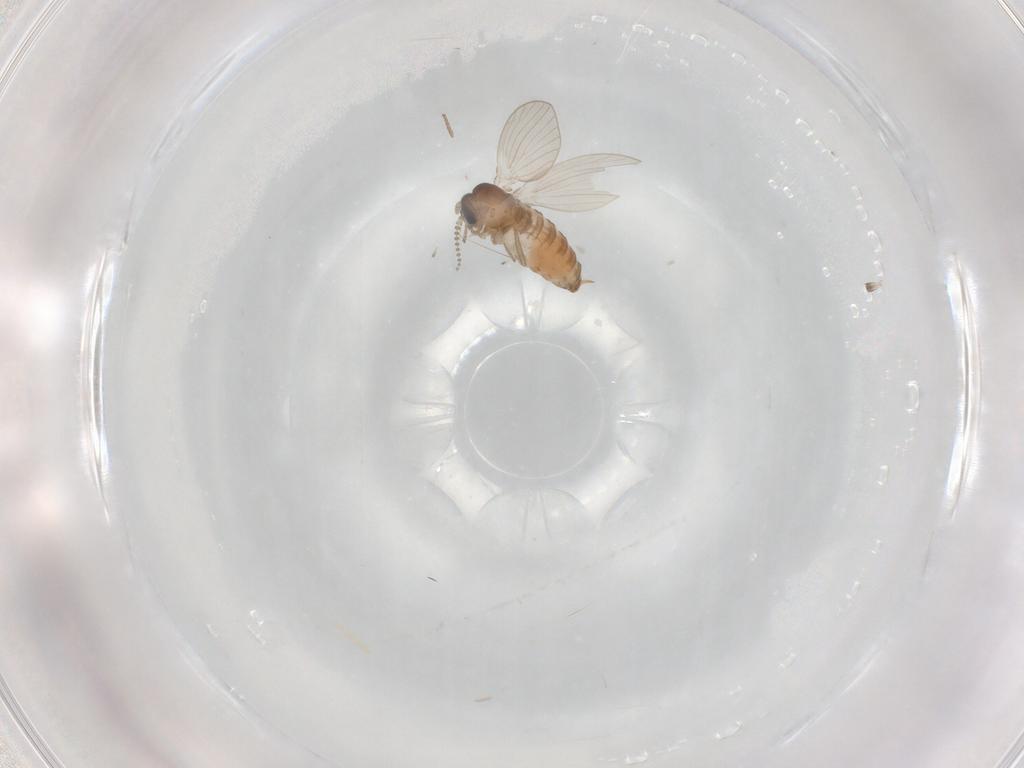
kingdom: Animalia
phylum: Arthropoda
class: Insecta
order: Diptera
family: Psychodidae
